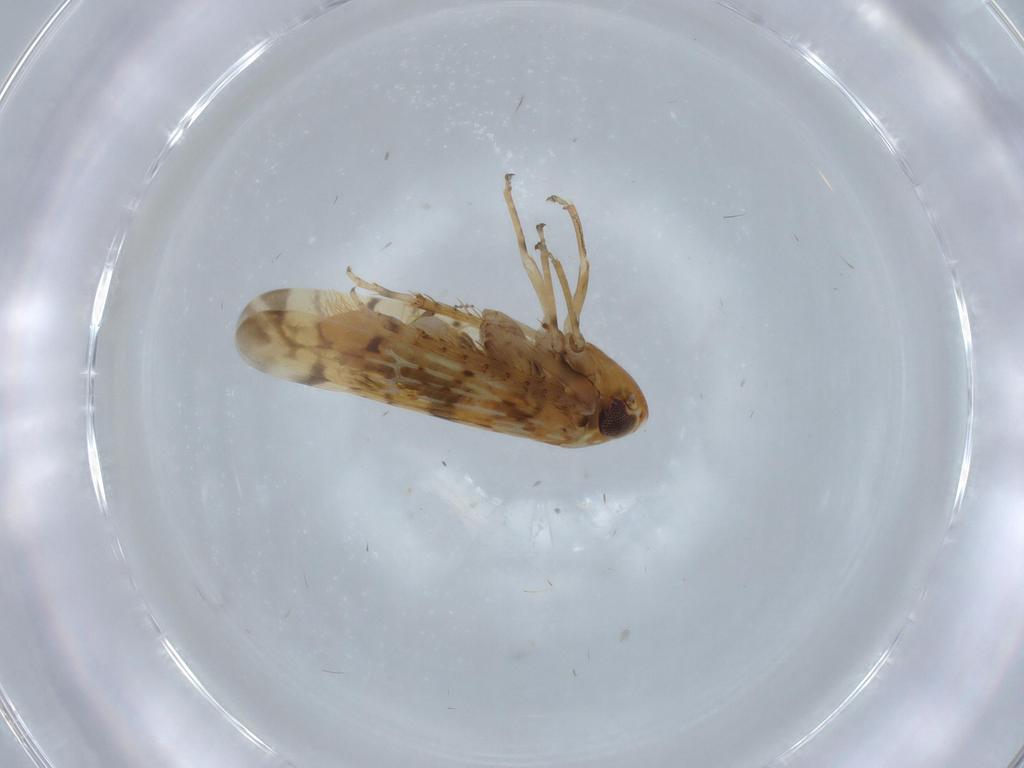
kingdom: Animalia
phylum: Arthropoda
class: Insecta
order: Hemiptera
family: Cicadellidae
